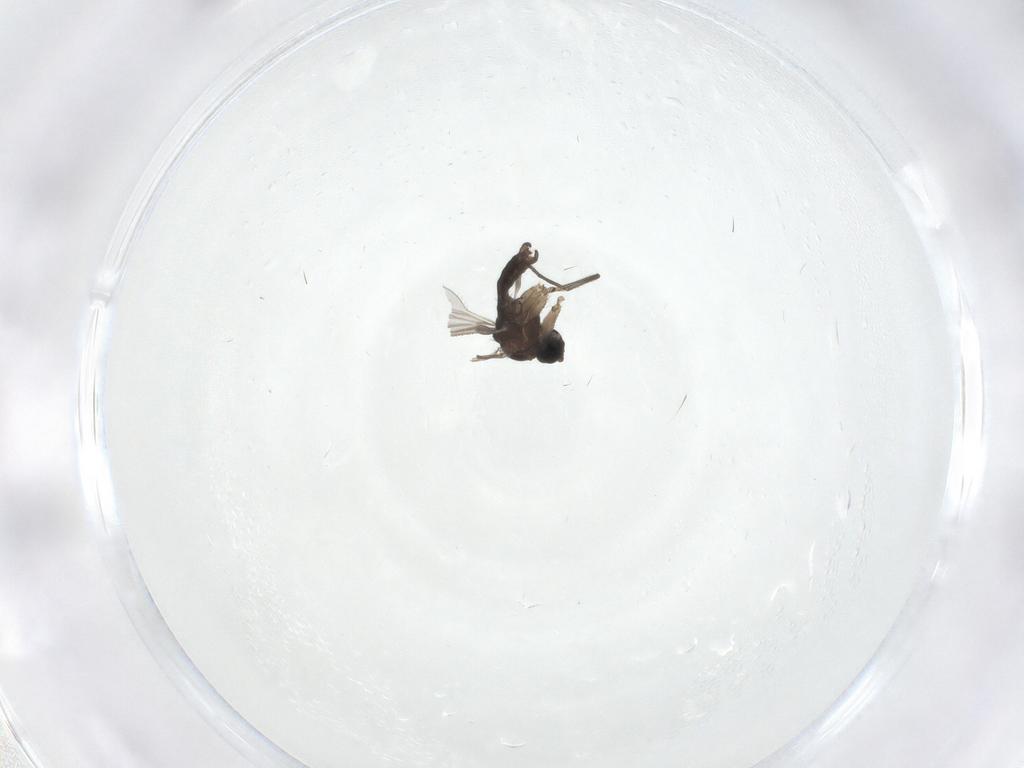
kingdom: Animalia
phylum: Arthropoda
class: Insecta
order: Diptera
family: Sciaridae
